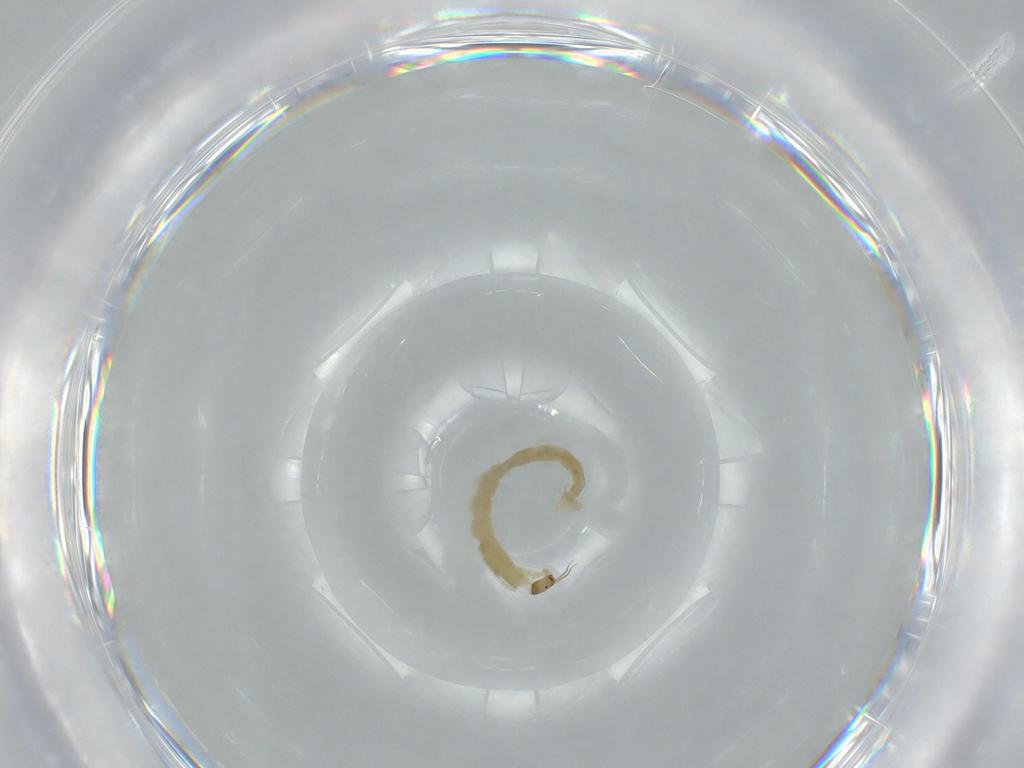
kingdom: Animalia
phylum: Arthropoda
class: Insecta
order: Diptera
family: Chironomidae
